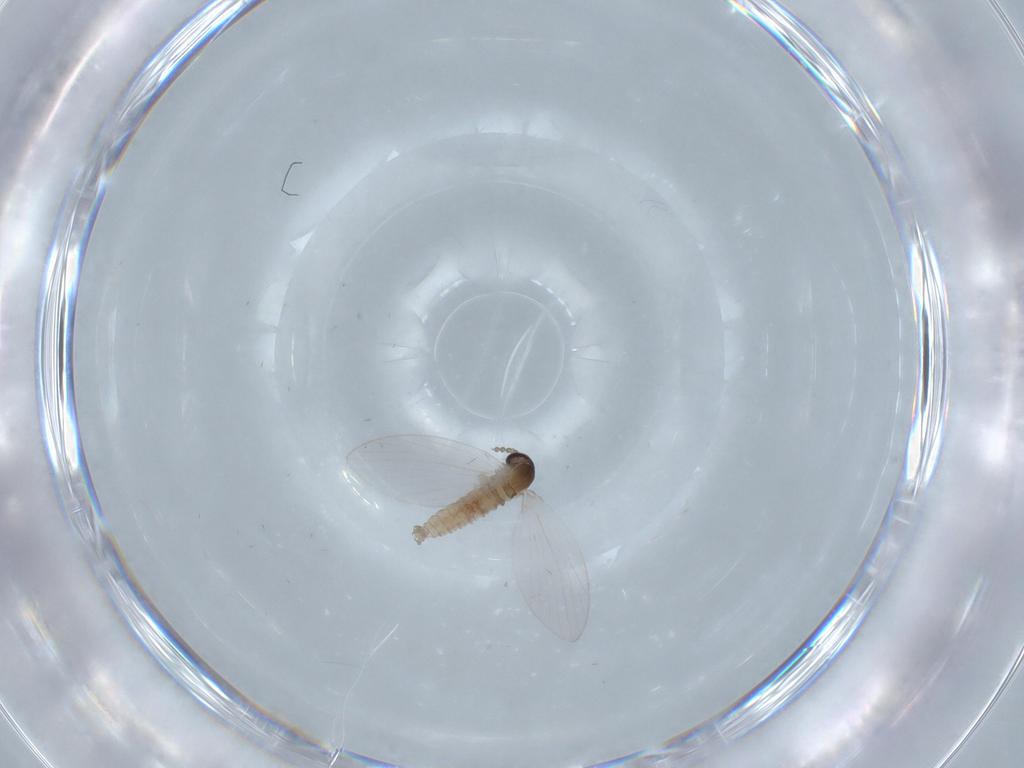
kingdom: Animalia
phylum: Arthropoda
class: Insecta
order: Diptera
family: Psychodidae
